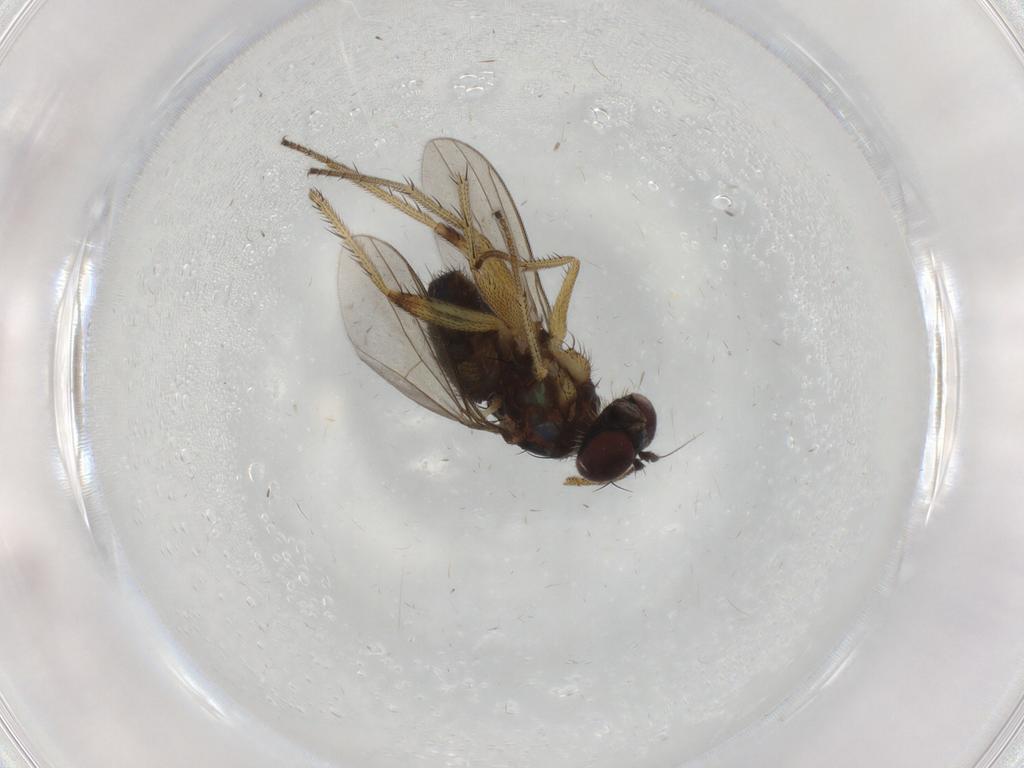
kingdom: Animalia
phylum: Arthropoda
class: Insecta
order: Diptera
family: Dolichopodidae
